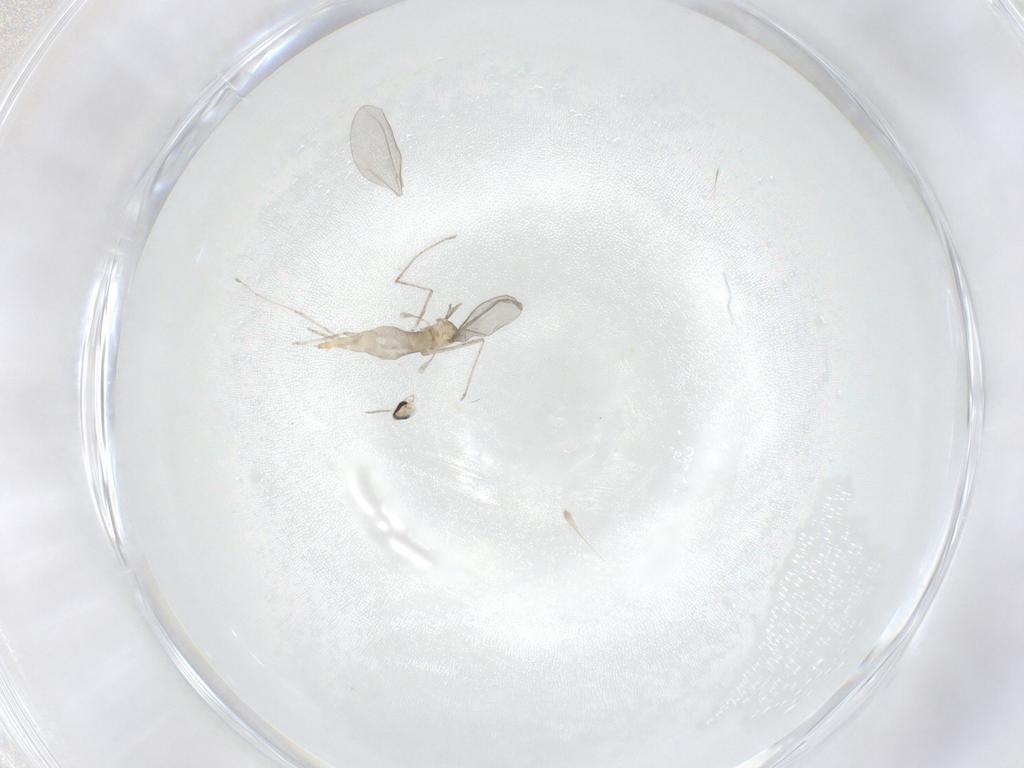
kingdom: Animalia
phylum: Arthropoda
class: Insecta
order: Diptera
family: Cecidomyiidae
